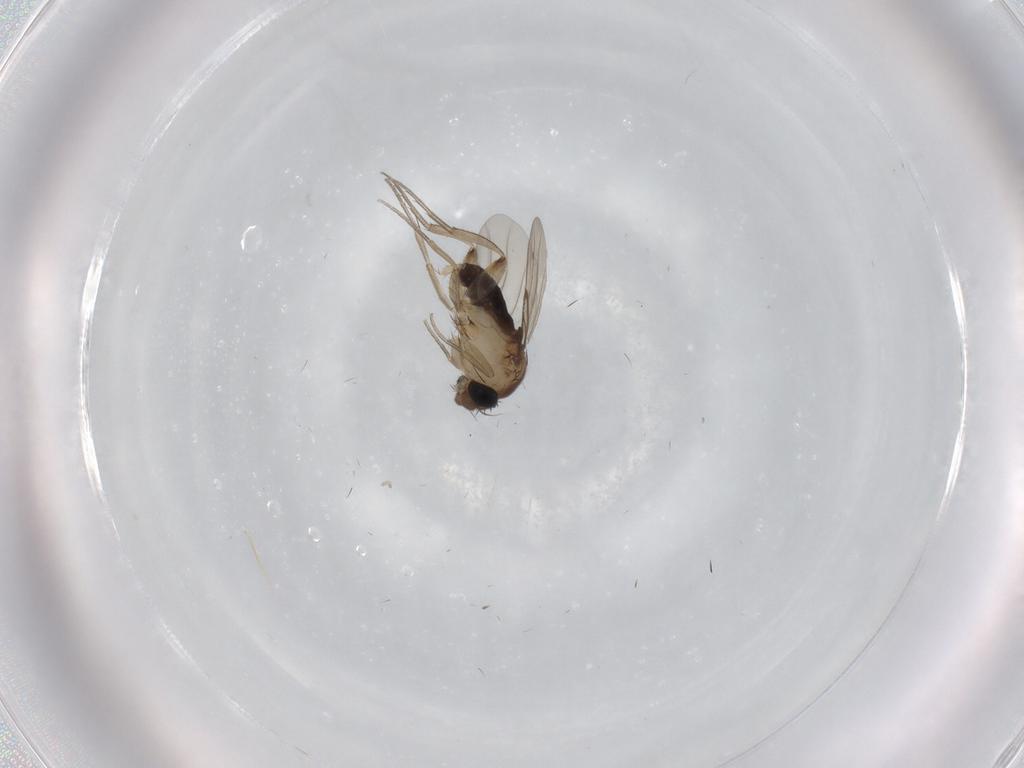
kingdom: Animalia
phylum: Arthropoda
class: Insecta
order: Diptera
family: Phoridae
